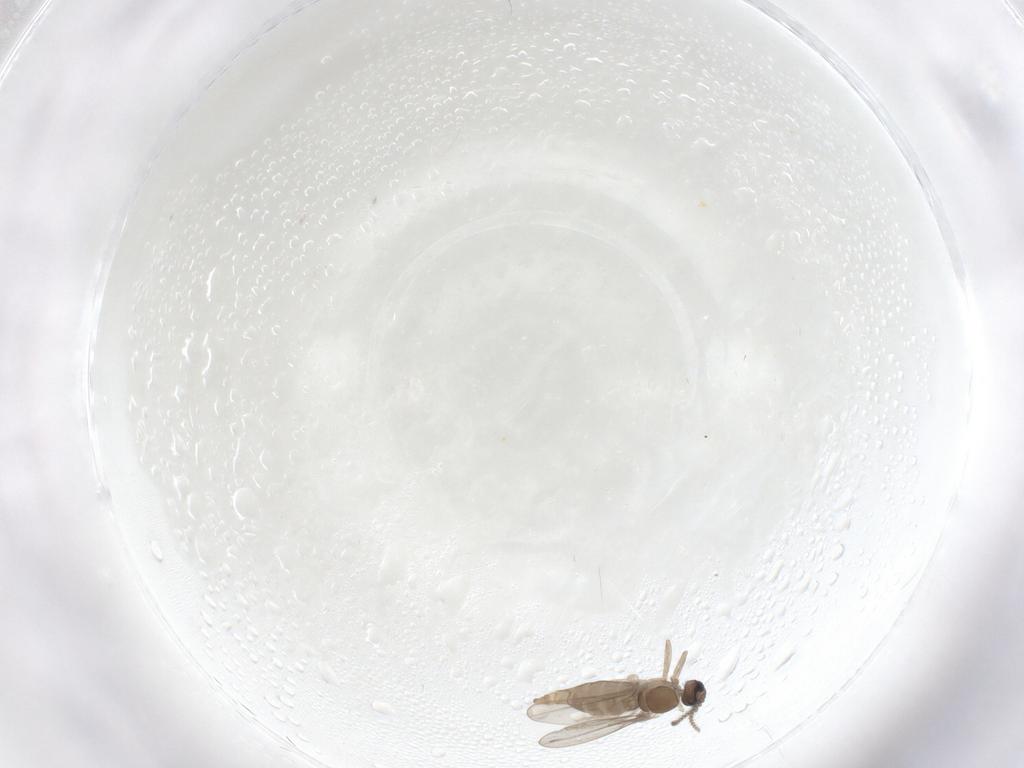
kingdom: Animalia
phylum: Arthropoda
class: Insecta
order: Diptera
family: Cecidomyiidae
